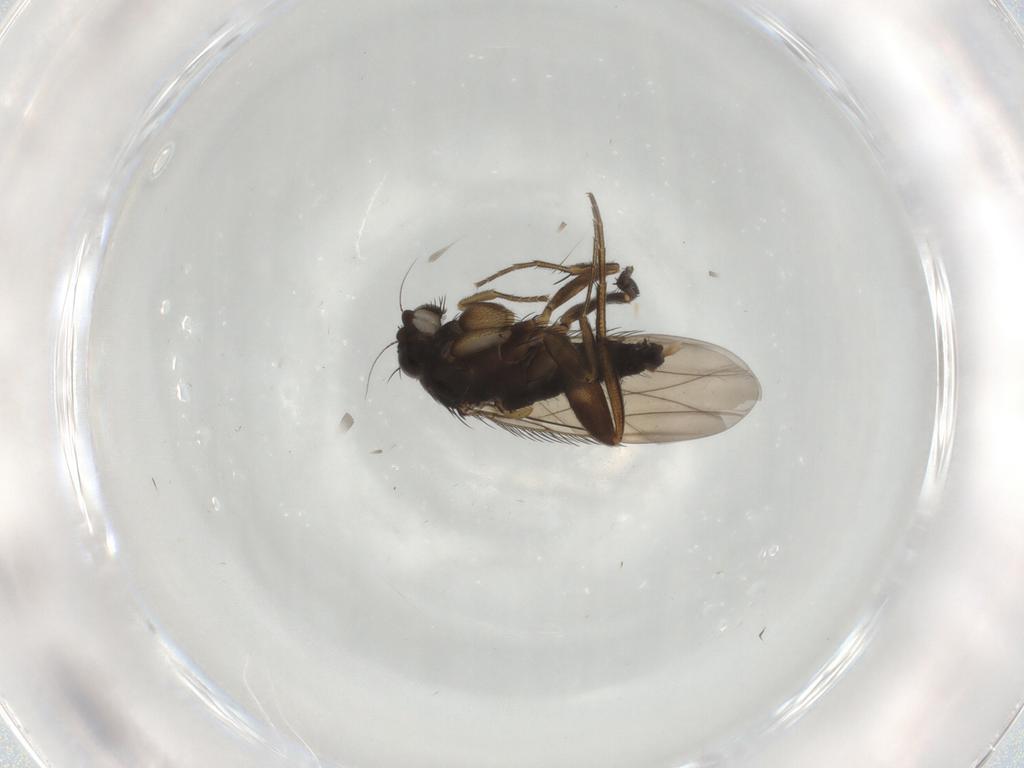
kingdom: Animalia
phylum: Arthropoda
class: Insecta
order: Diptera
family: Phoridae
